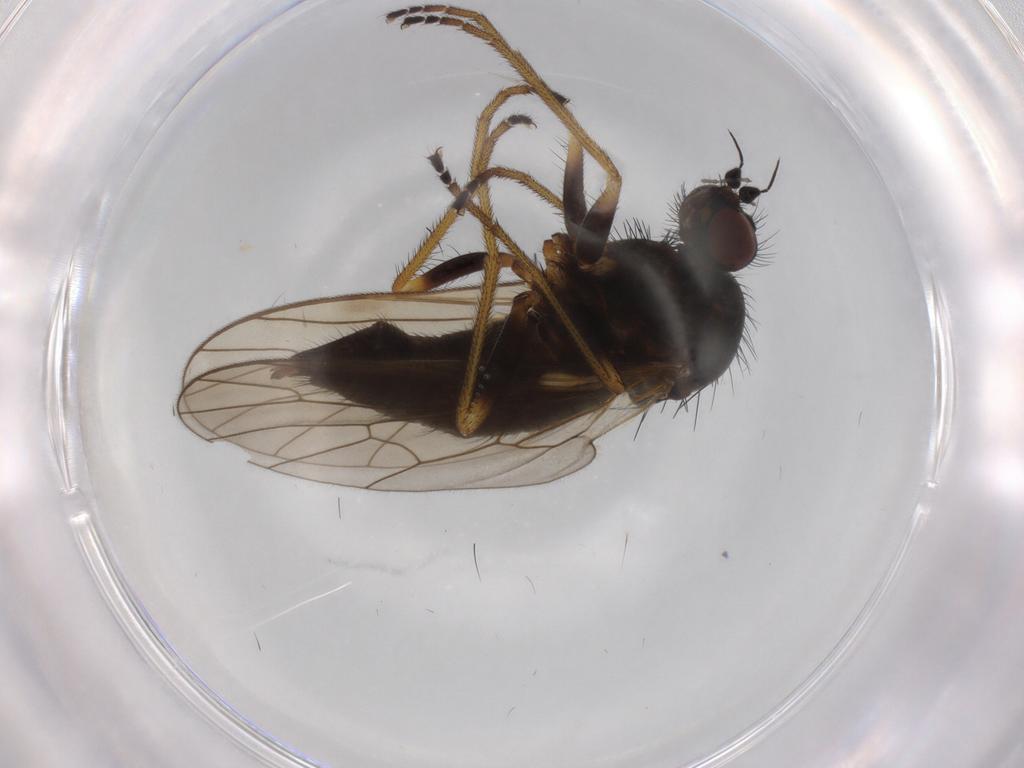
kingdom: Animalia
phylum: Arthropoda
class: Insecta
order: Diptera
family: Brachystomatidae
